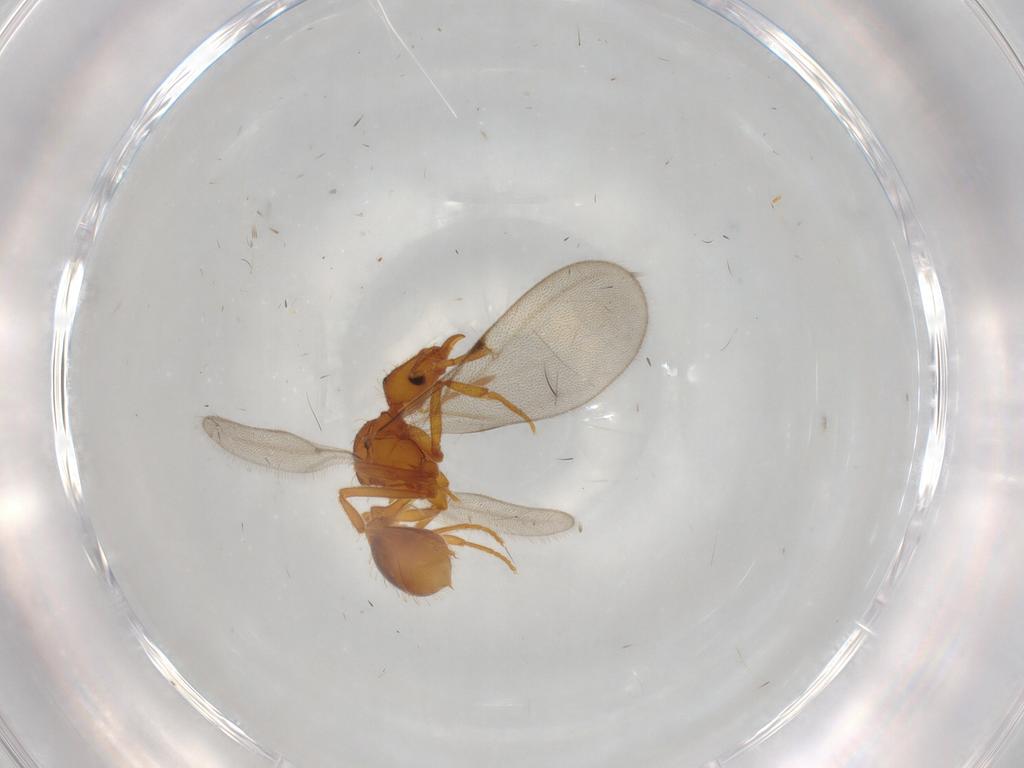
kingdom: Animalia
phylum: Arthropoda
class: Insecta
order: Hymenoptera
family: Formicidae
